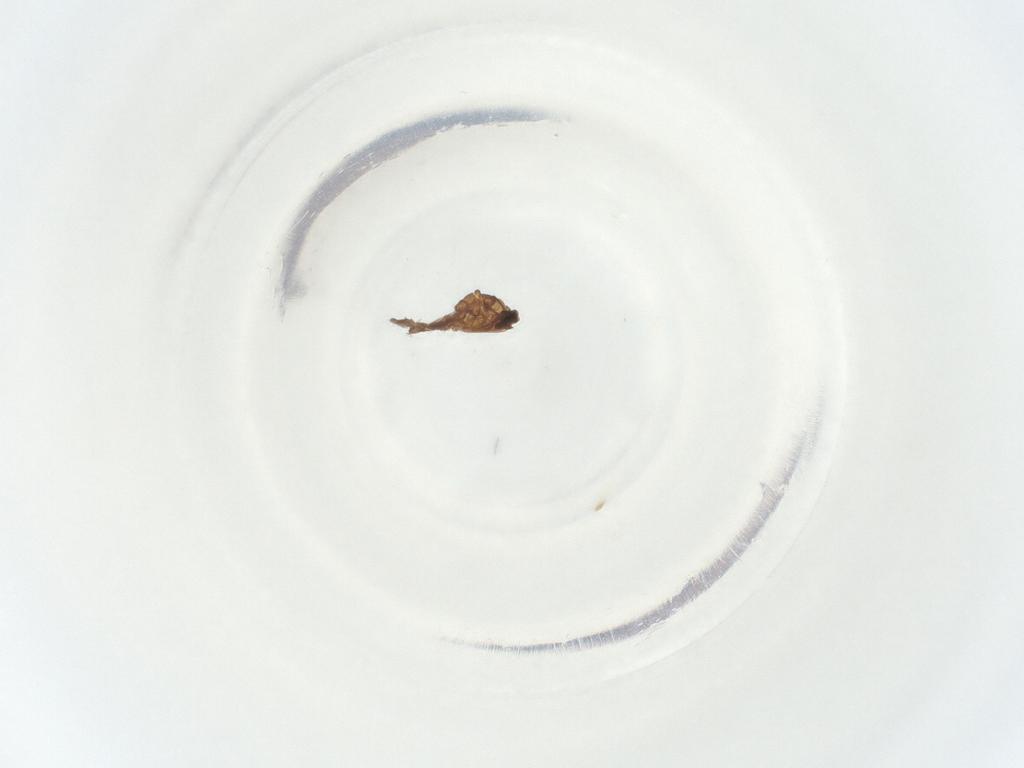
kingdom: Animalia
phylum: Arthropoda
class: Insecta
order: Diptera
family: Sciaridae
